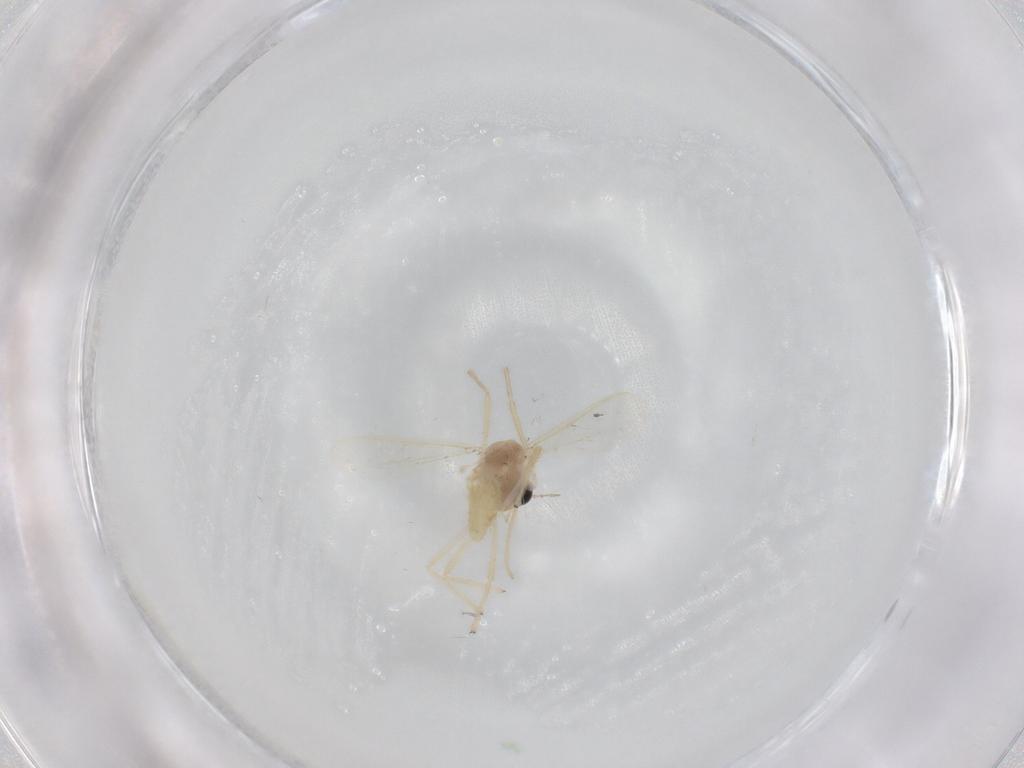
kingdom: Animalia
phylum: Arthropoda
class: Insecta
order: Diptera
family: Chironomidae
